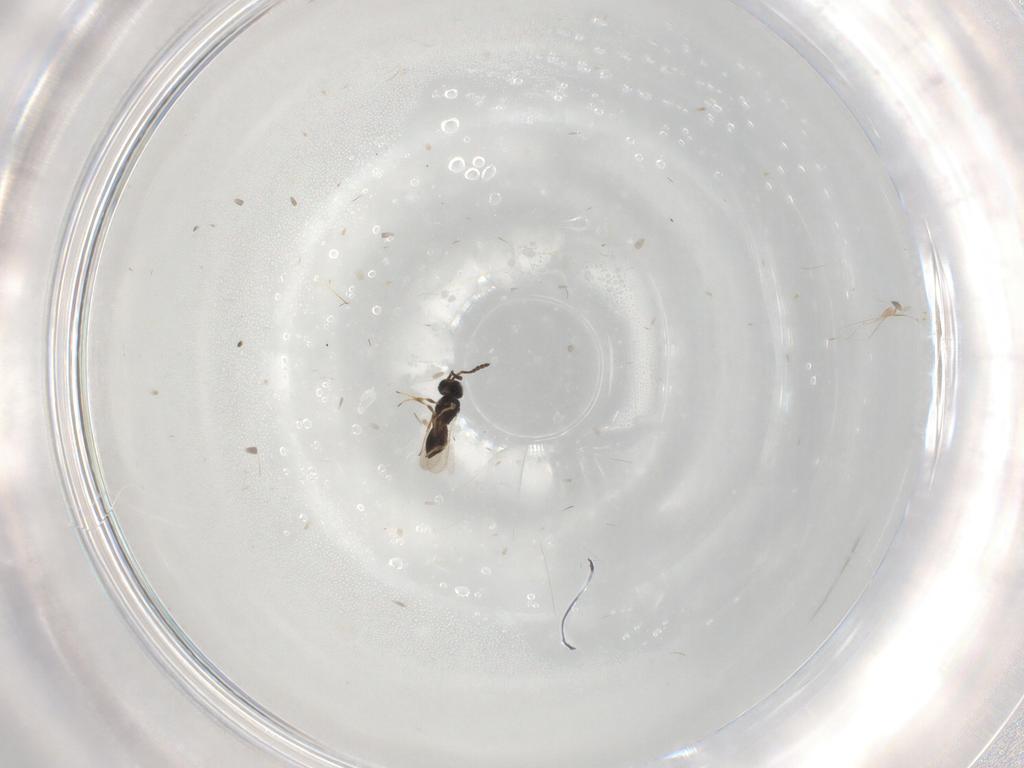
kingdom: Animalia
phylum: Arthropoda
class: Insecta
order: Hymenoptera
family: Scelionidae
